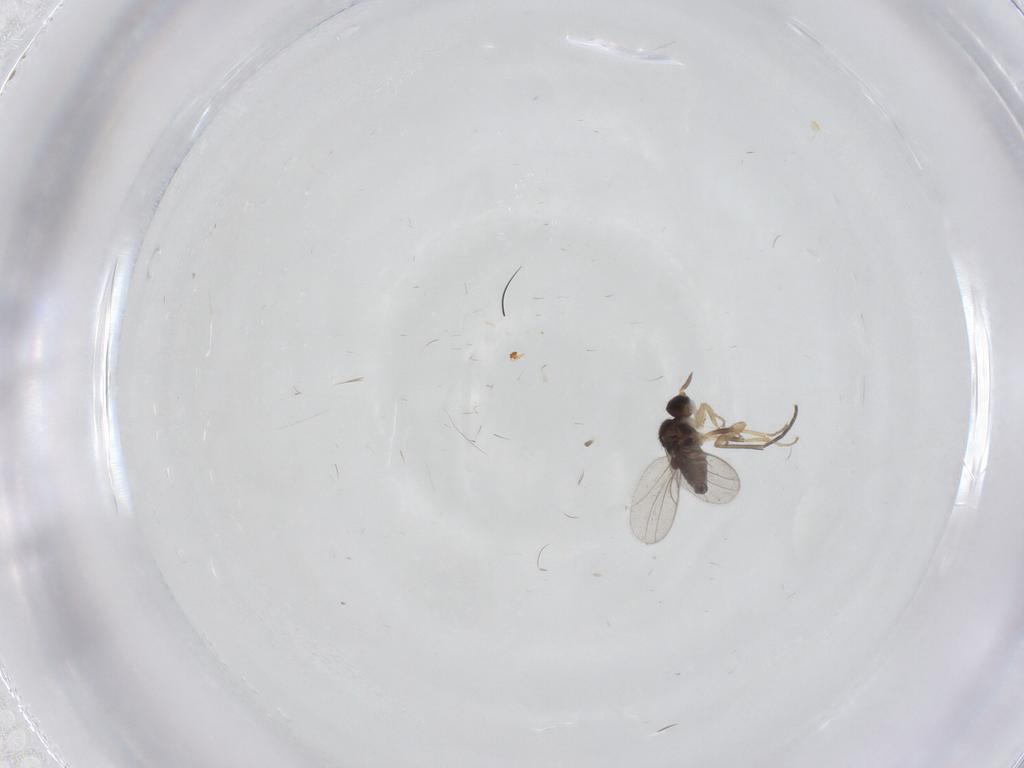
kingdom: Animalia
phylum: Arthropoda
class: Insecta
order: Diptera
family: Hybotidae
